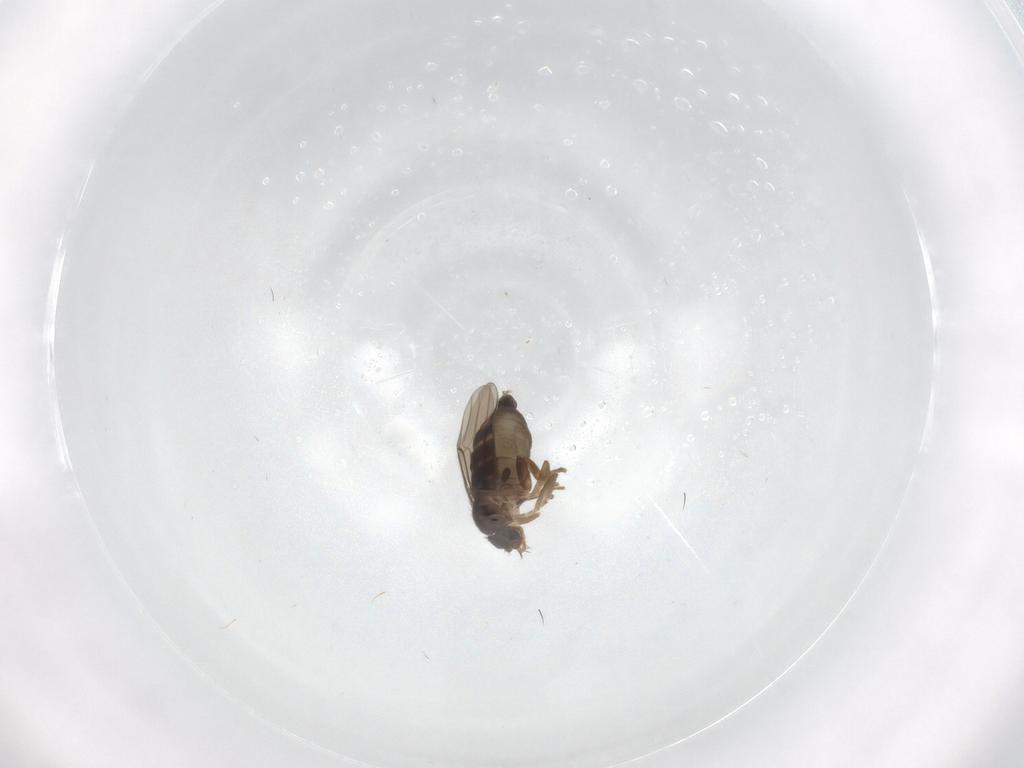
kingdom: Animalia
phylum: Arthropoda
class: Insecta
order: Diptera
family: Phoridae
